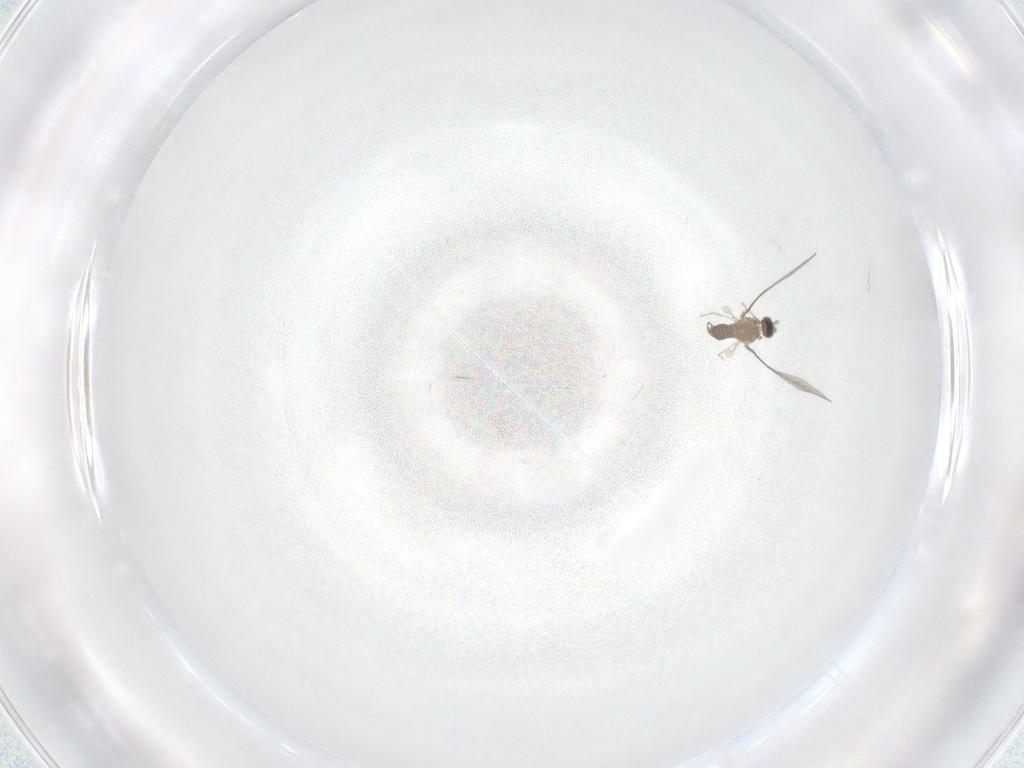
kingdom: Animalia
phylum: Arthropoda
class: Insecta
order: Diptera
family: Cecidomyiidae
